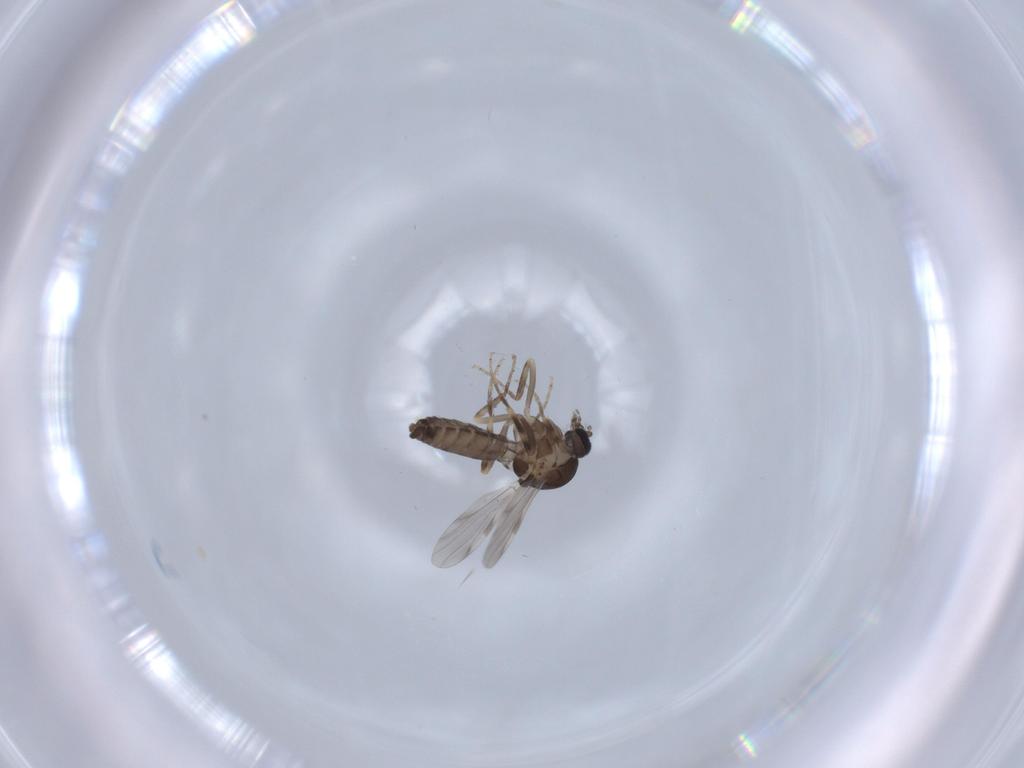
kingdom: Animalia
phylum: Arthropoda
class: Insecta
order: Diptera
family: Ceratopogonidae
